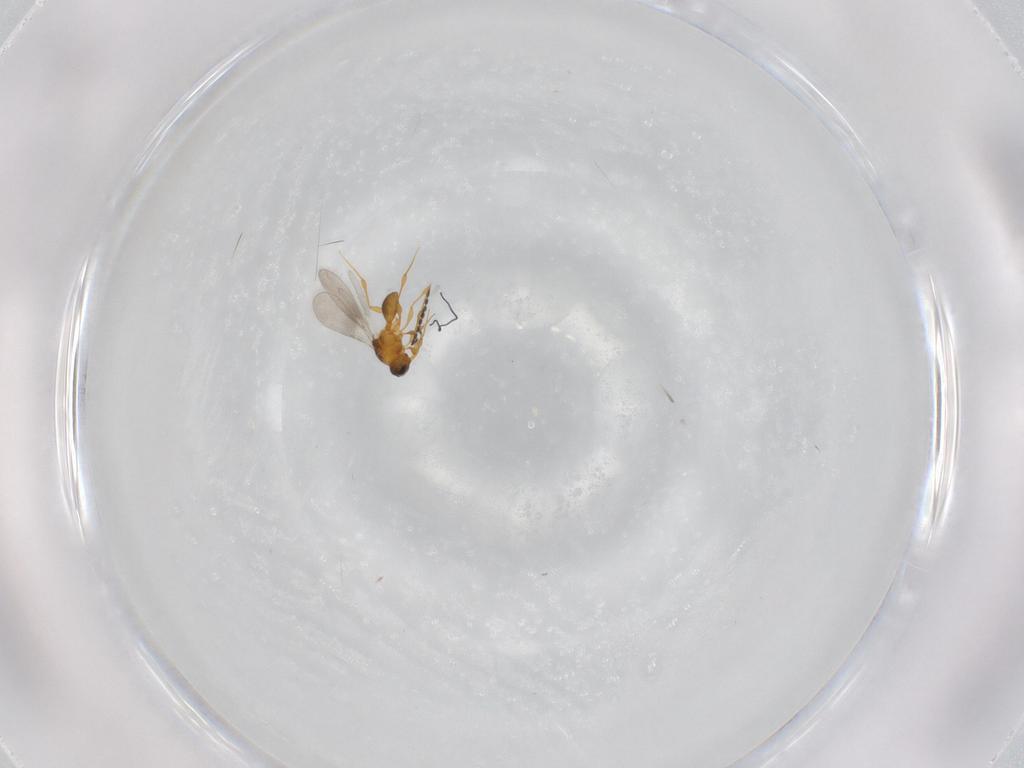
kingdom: Animalia
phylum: Arthropoda
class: Insecta
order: Hymenoptera
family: Platygastridae
